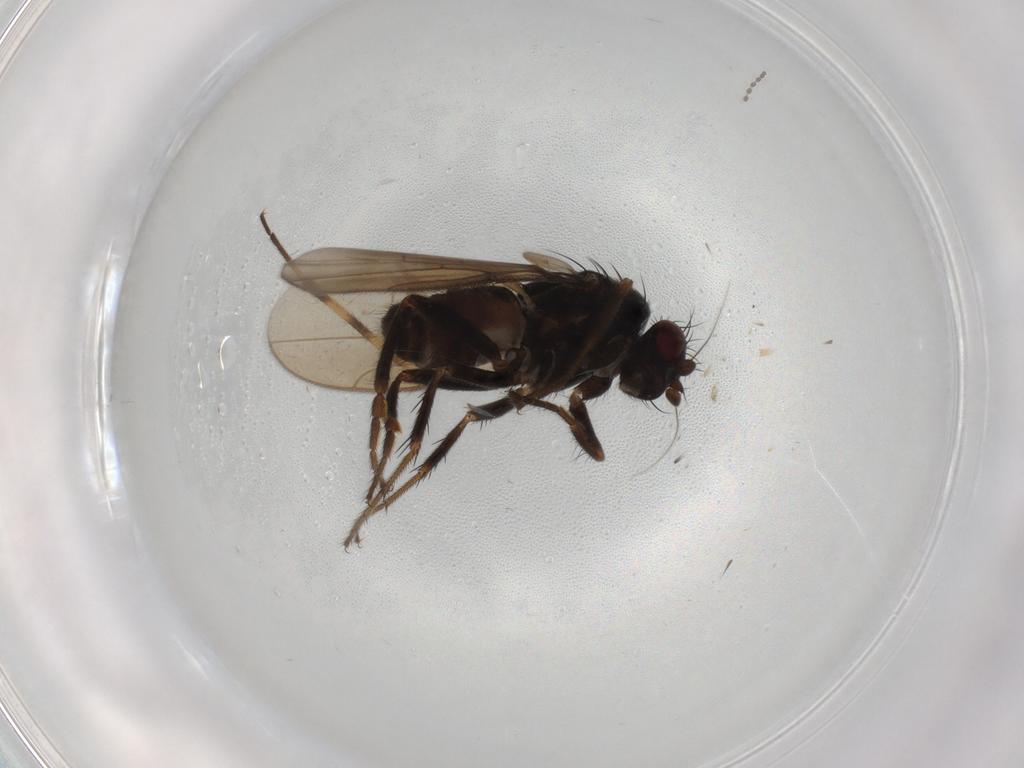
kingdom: Animalia
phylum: Arthropoda
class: Insecta
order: Diptera
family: Sphaeroceridae
